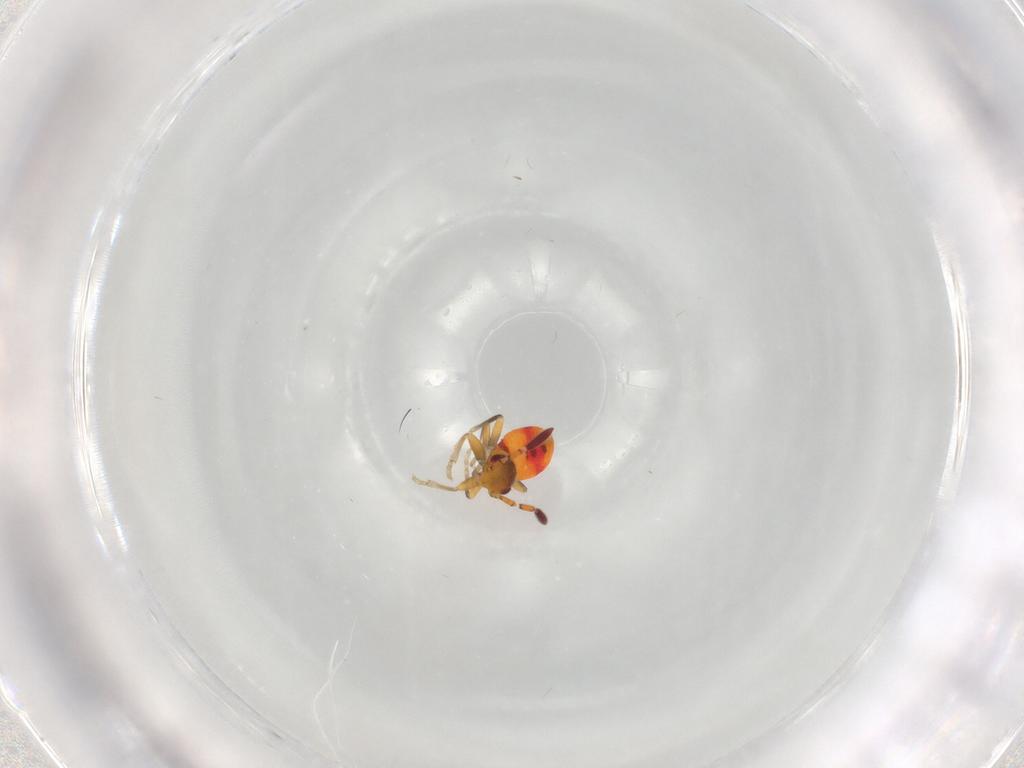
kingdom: Animalia
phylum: Arthropoda
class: Insecta
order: Hemiptera
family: Rhyparochromidae
